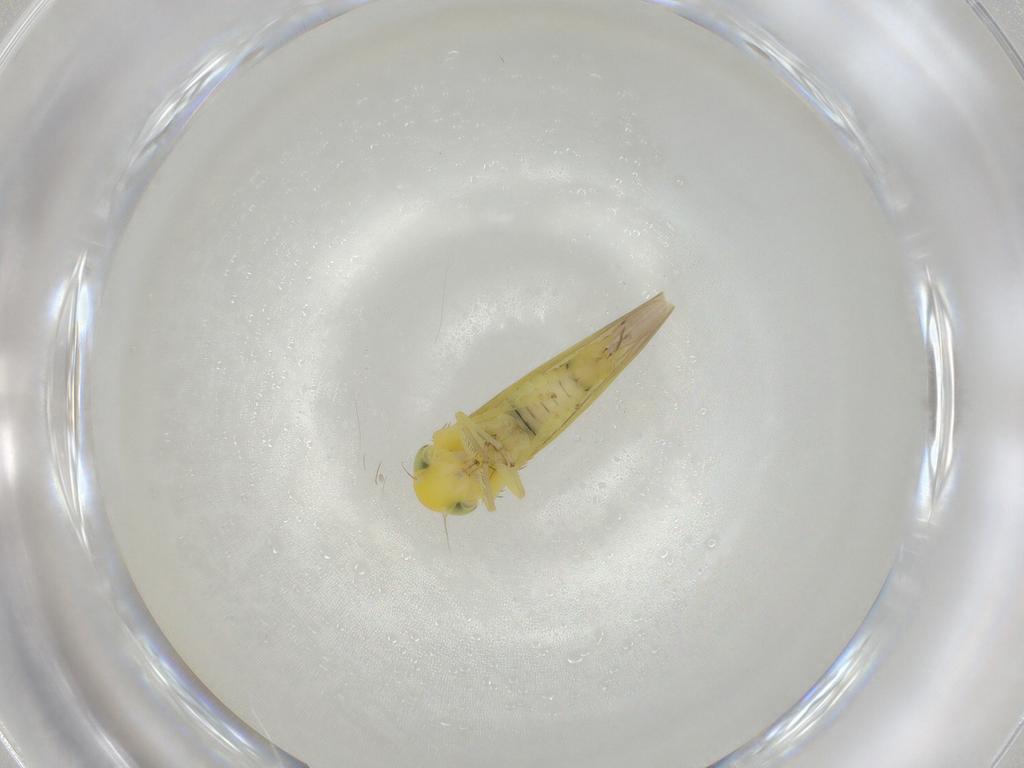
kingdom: Animalia
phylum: Arthropoda
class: Insecta
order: Hemiptera
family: Cicadellidae
